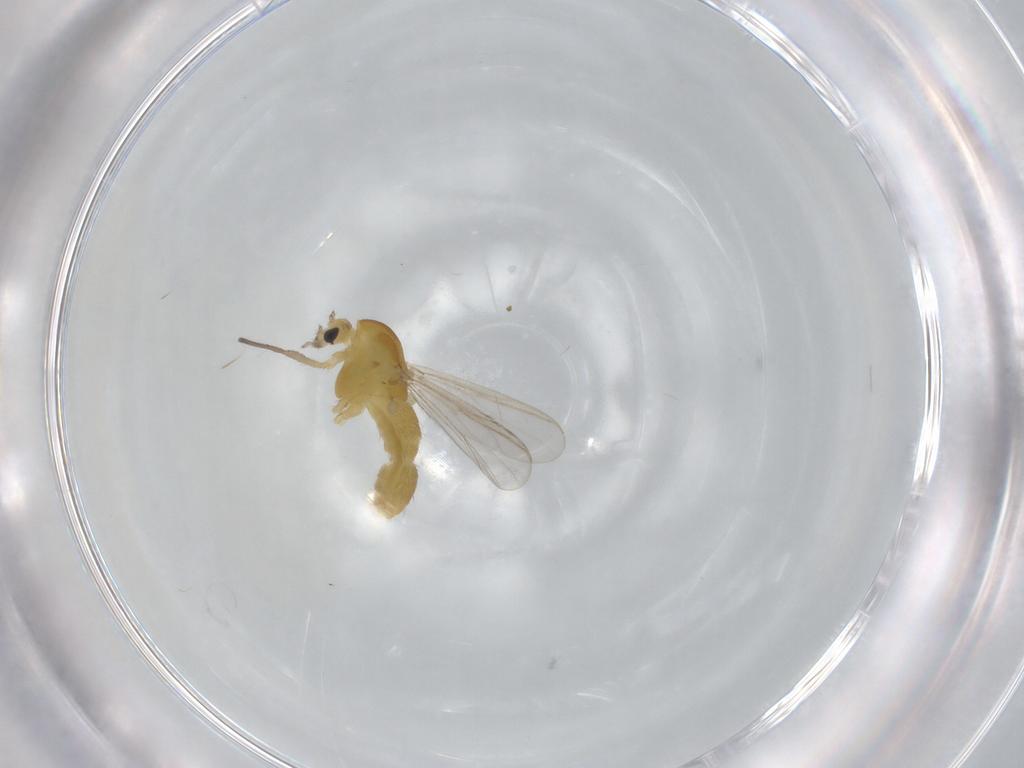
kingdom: Animalia
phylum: Arthropoda
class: Insecta
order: Diptera
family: Chironomidae
